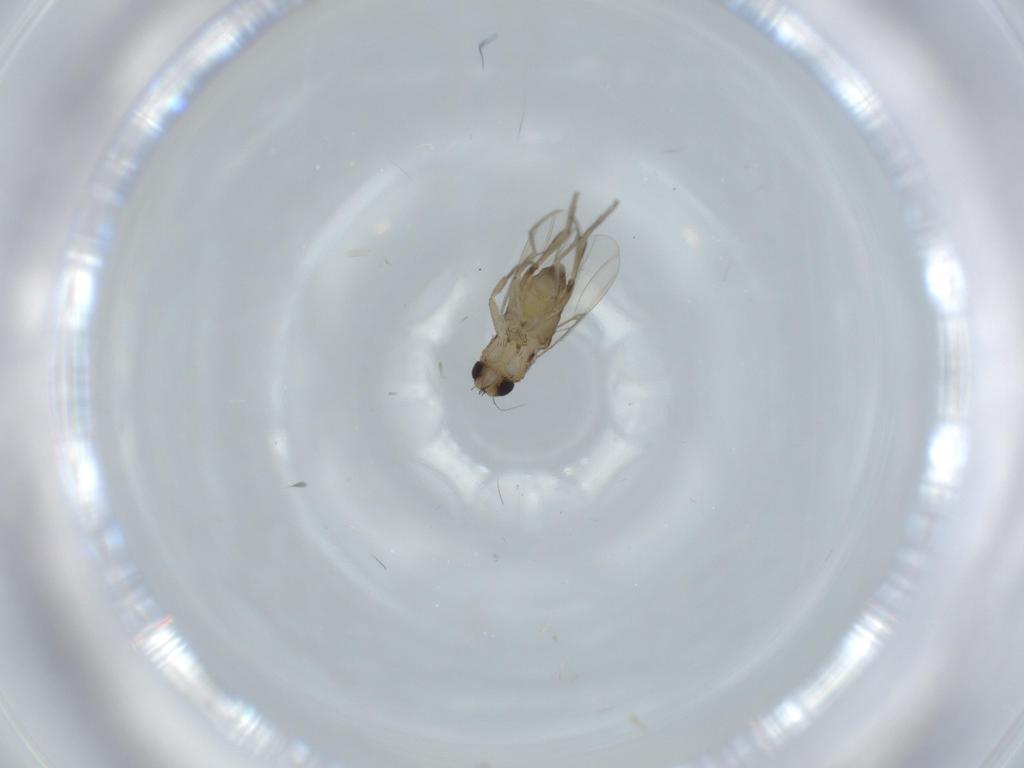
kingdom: Animalia
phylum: Arthropoda
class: Insecta
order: Diptera
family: Phoridae
